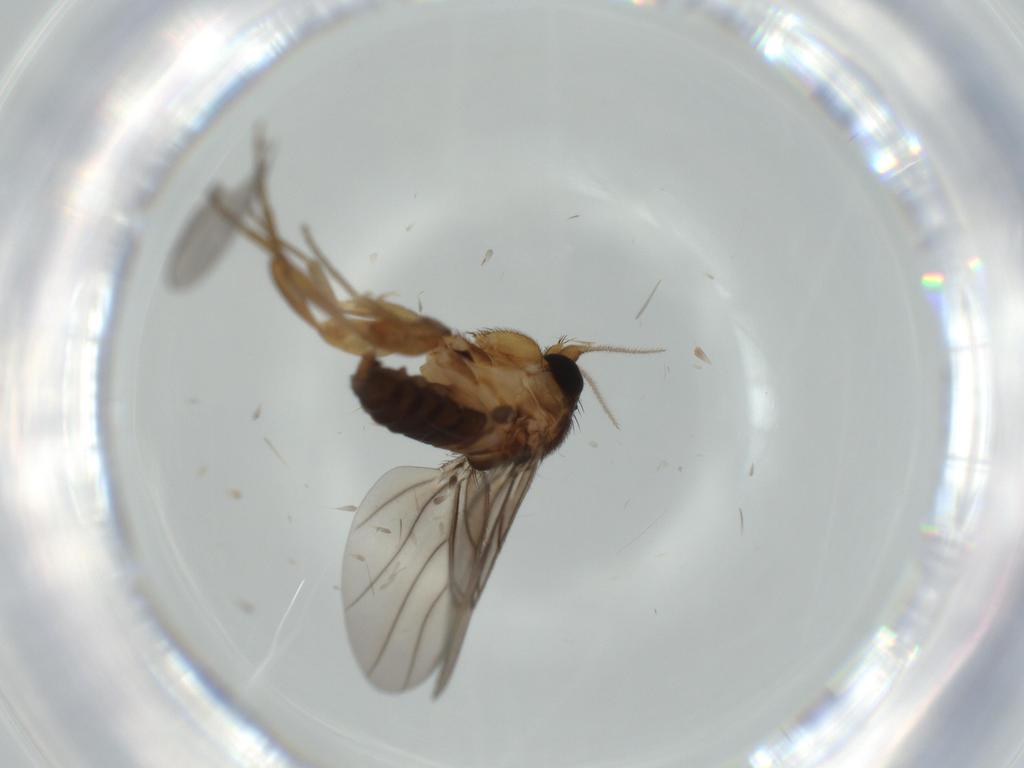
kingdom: Animalia
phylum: Arthropoda
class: Insecta
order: Diptera
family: Sphaeroceridae
